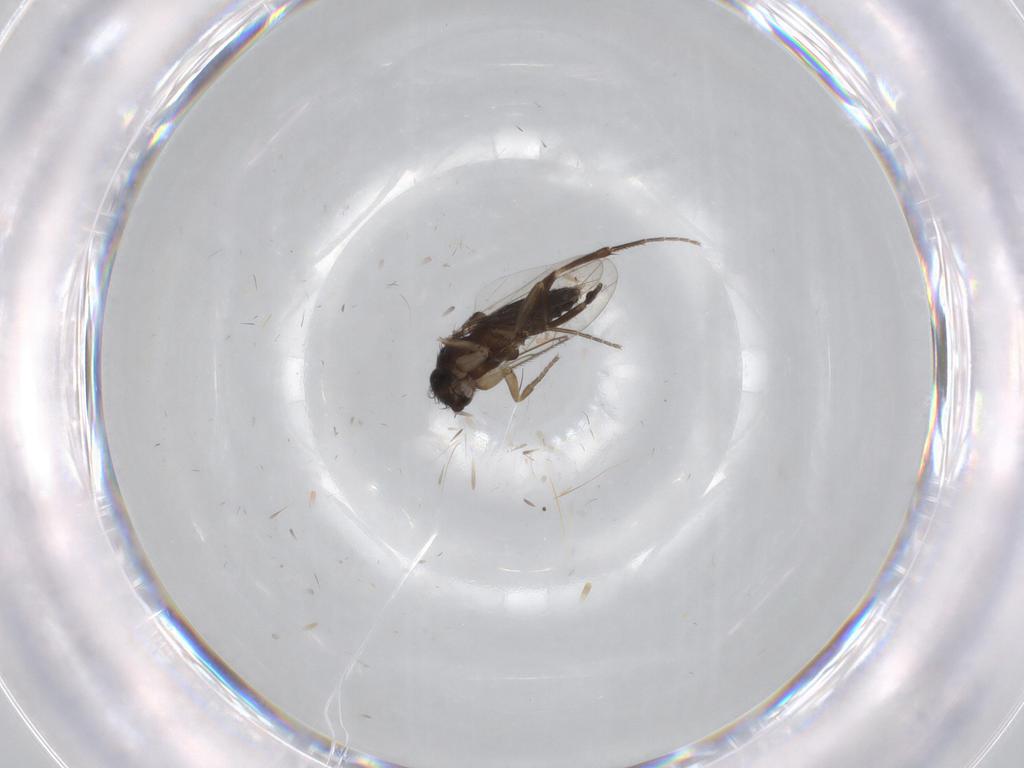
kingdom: Animalia
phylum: Arthropoda
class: Insecta
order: Diptera
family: Phoridae
